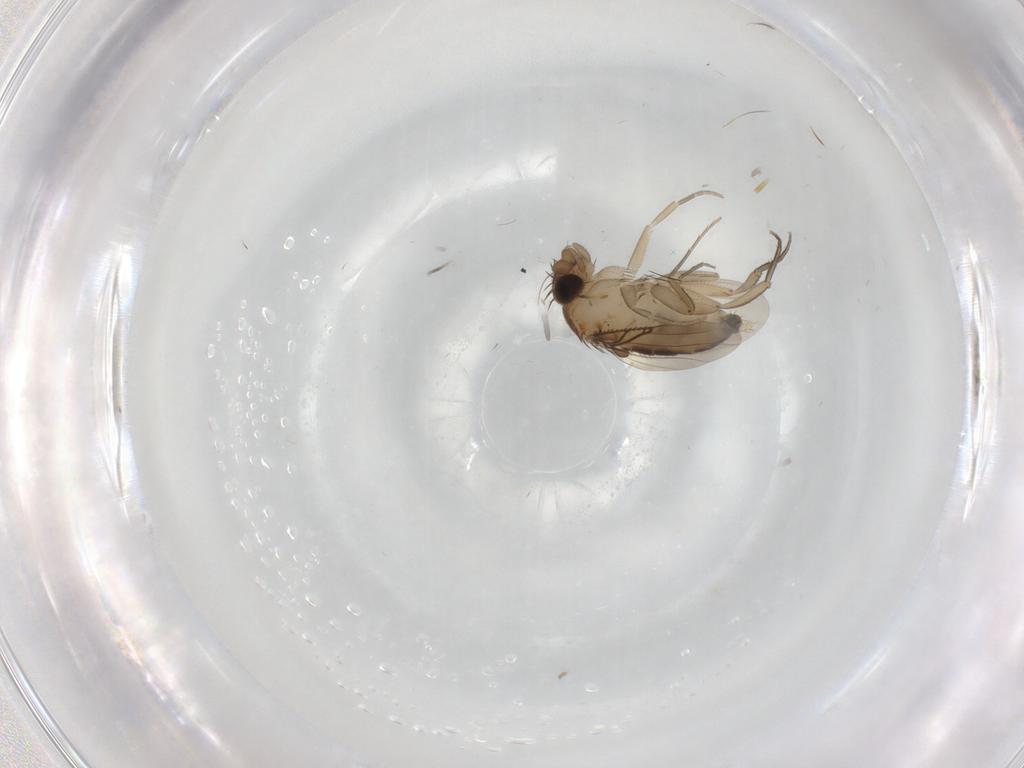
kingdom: Animalia
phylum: Arthropoda
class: Insecta
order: Diptera
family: Phoridae
